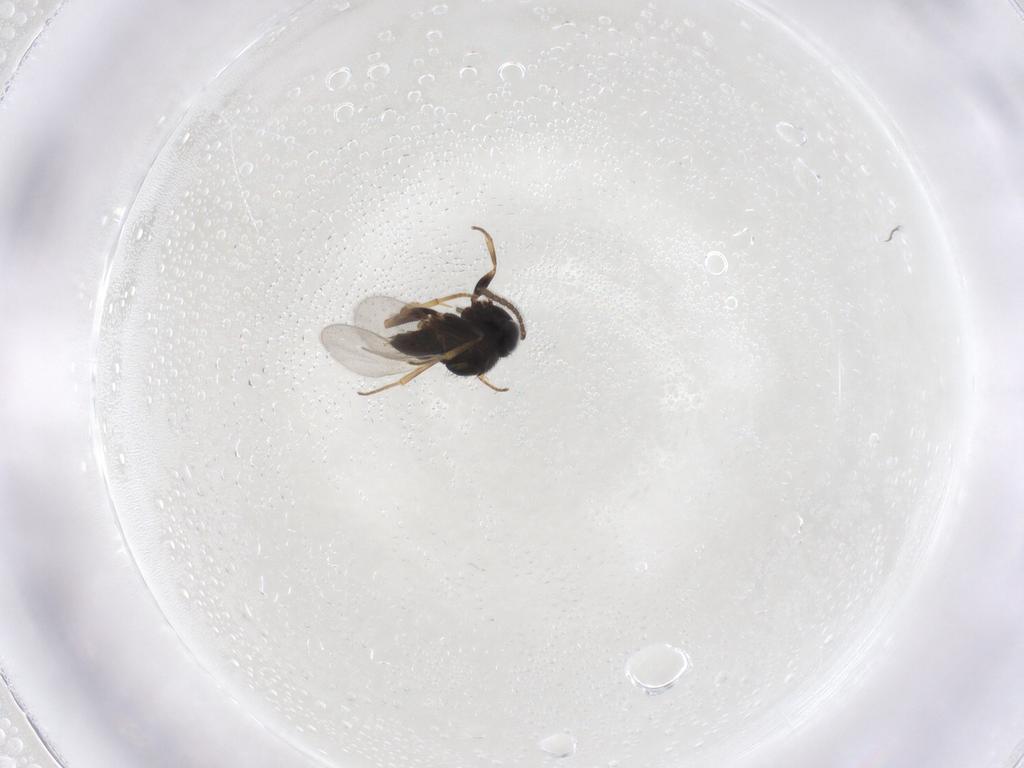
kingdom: Animalia
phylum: Arthropoda
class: Insecta
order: Hymenoptera
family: Encyrtidae
